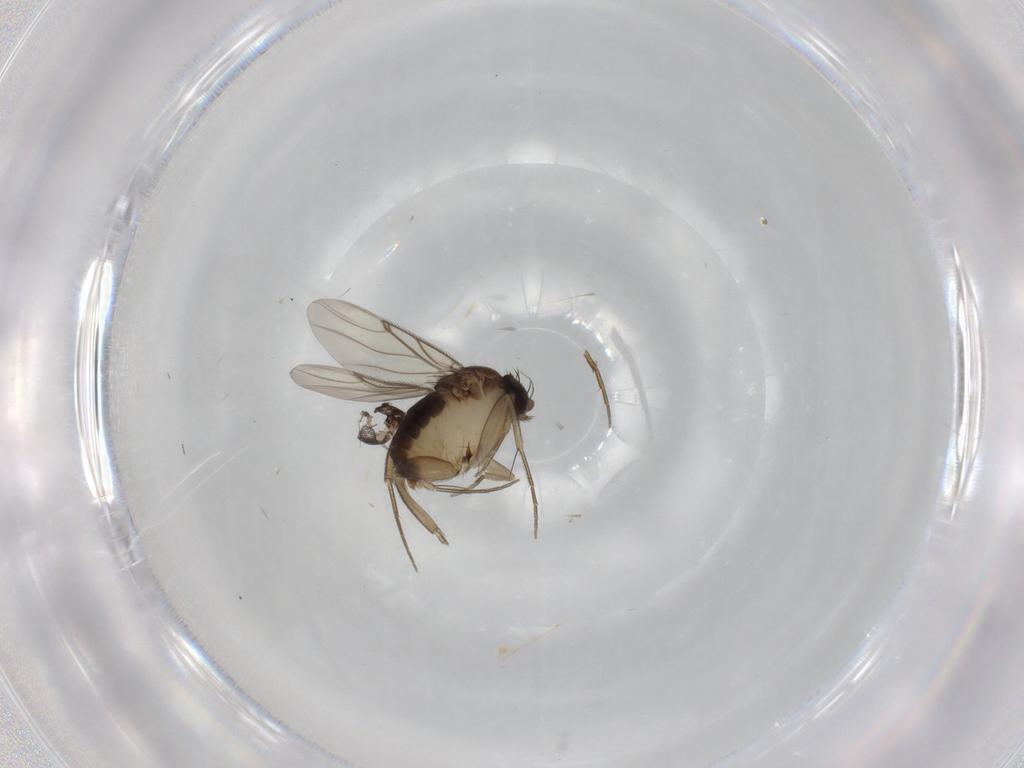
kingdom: Animalia
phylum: Arthropoda
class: Insecta
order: Diptera
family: Phoridae
